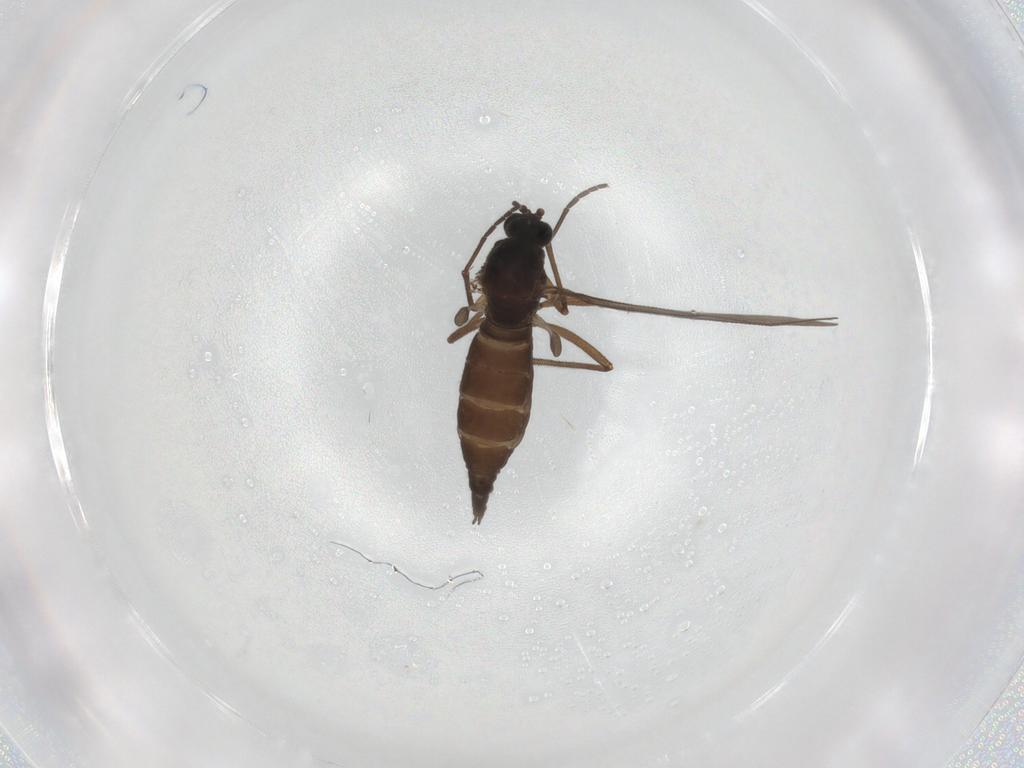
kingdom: Animalia
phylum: Arthropoda
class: Insecta
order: Diptera
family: Sciaridae
